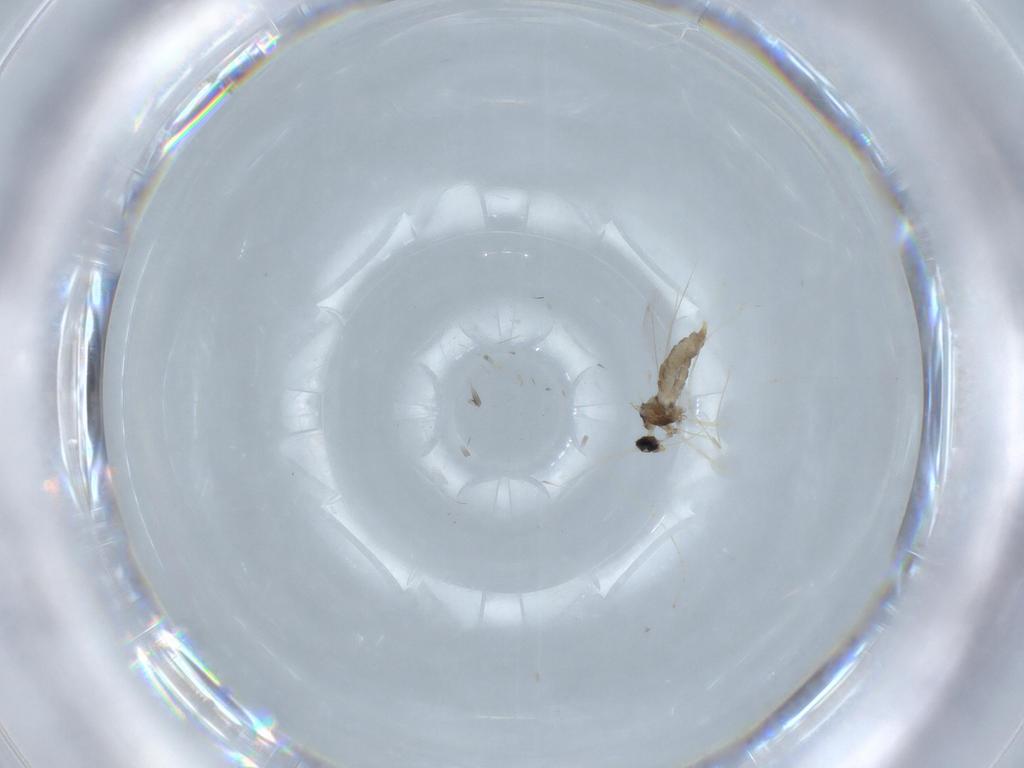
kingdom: Animalia
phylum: Arthropoda
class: Insecta
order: Diptera
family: Cecidomyiidae
